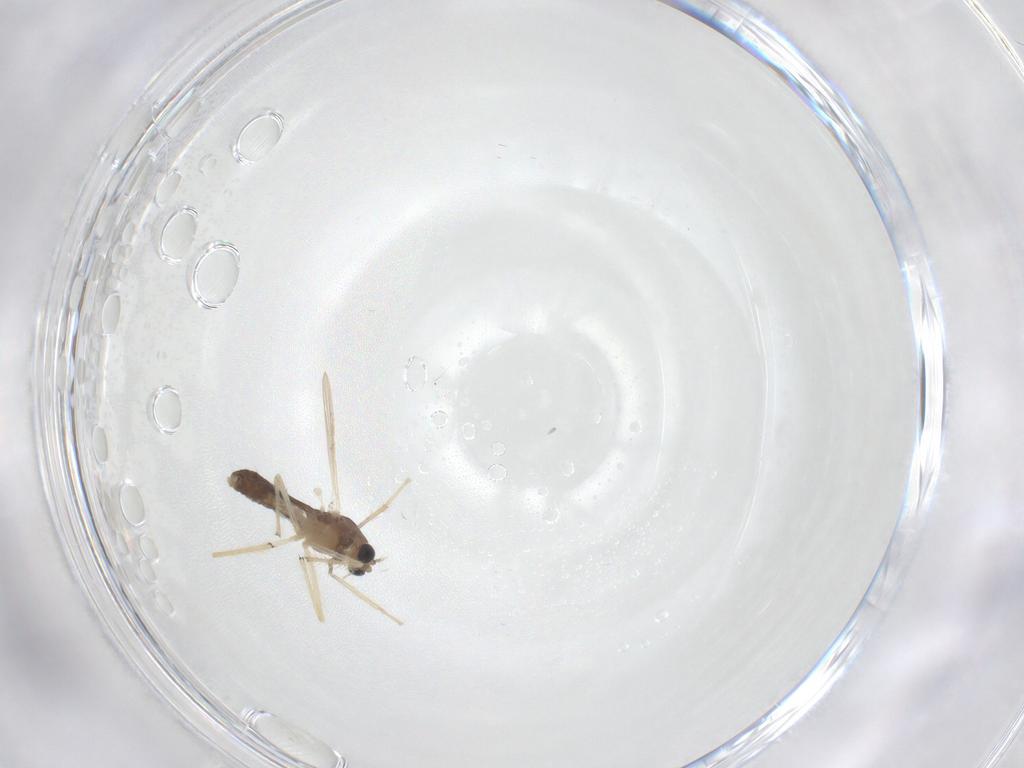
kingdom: Animalia
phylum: Arthropoda
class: Insecta
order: Diptera
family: Chironomidae
